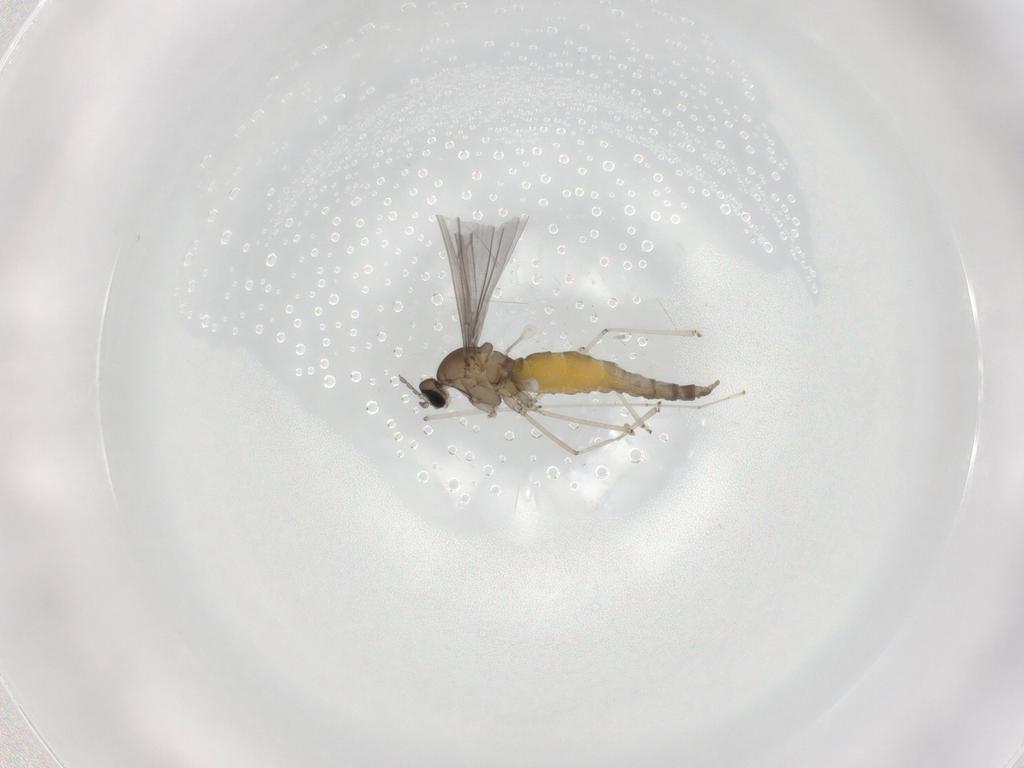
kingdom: Animalia
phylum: Arthropoda
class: Insecta
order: Diptera
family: Cecidomyiidae
